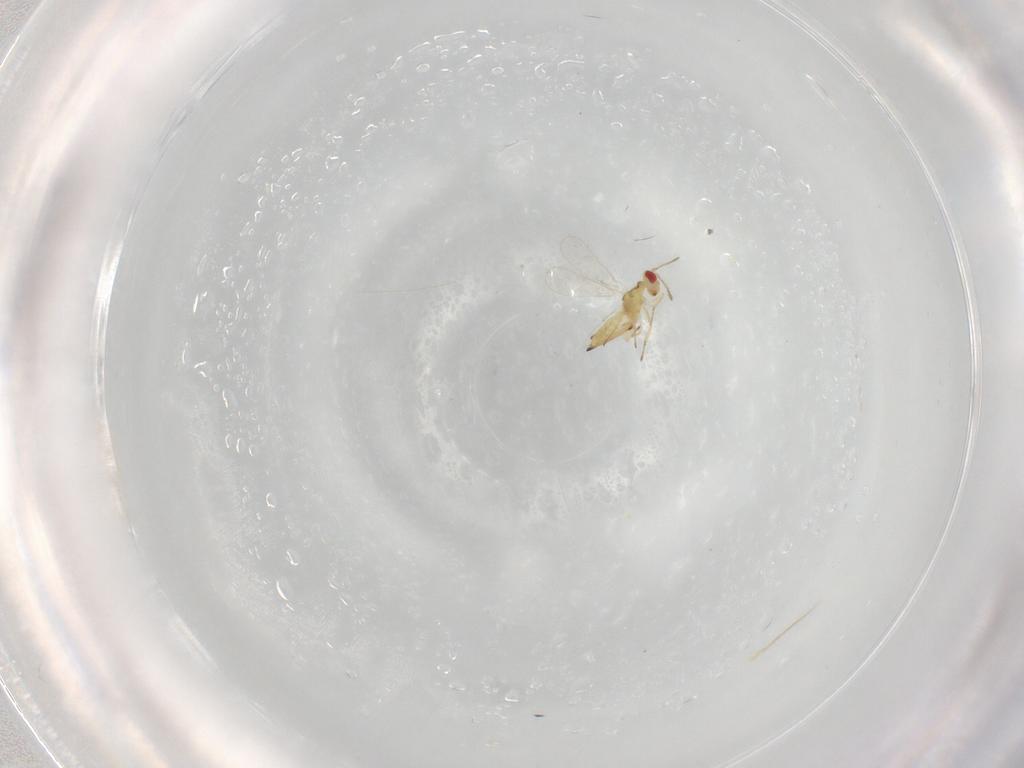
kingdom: Animalia
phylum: Arthropoda
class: Insecta
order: Hymenoptera
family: Eulophidae
